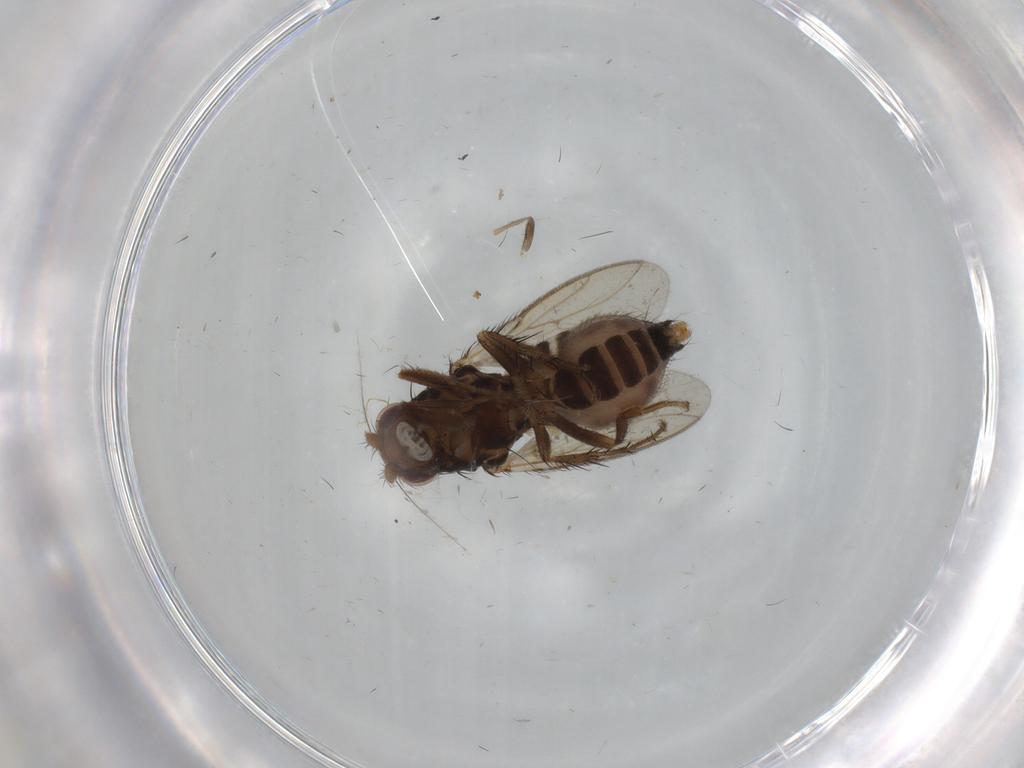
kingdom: Animalia
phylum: Arthropoda
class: Insecta
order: Diptera
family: Sphaeroceridae
